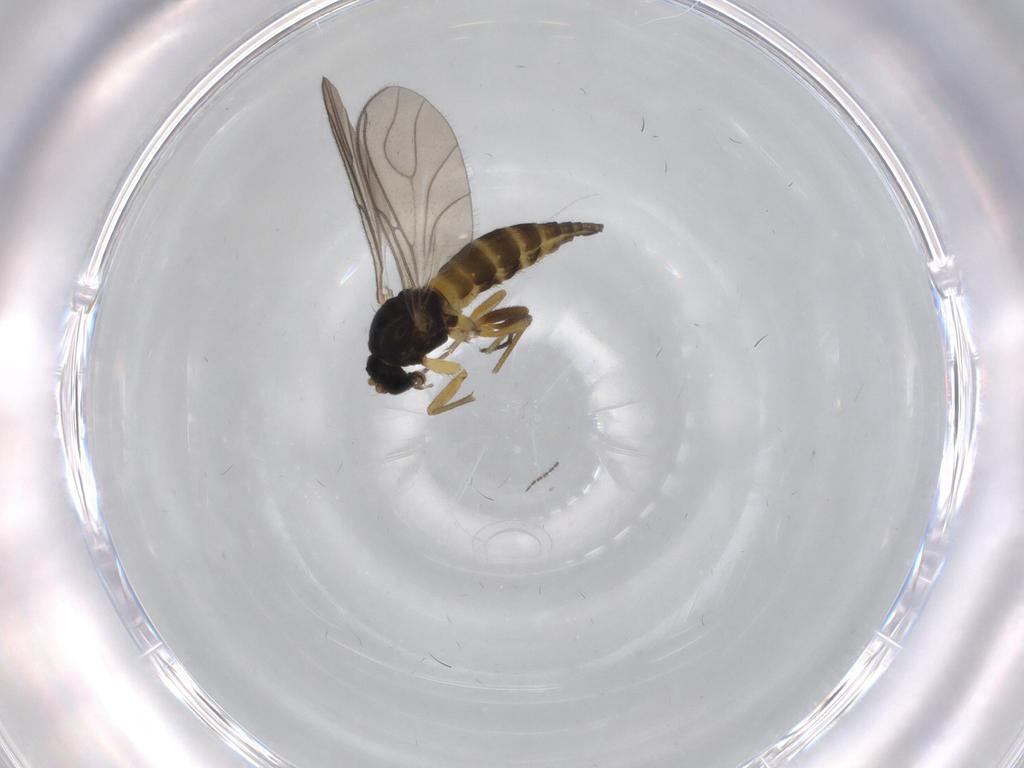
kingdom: Animalia
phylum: Arthropoda
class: Insecta
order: Diptera
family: Sciaridae
